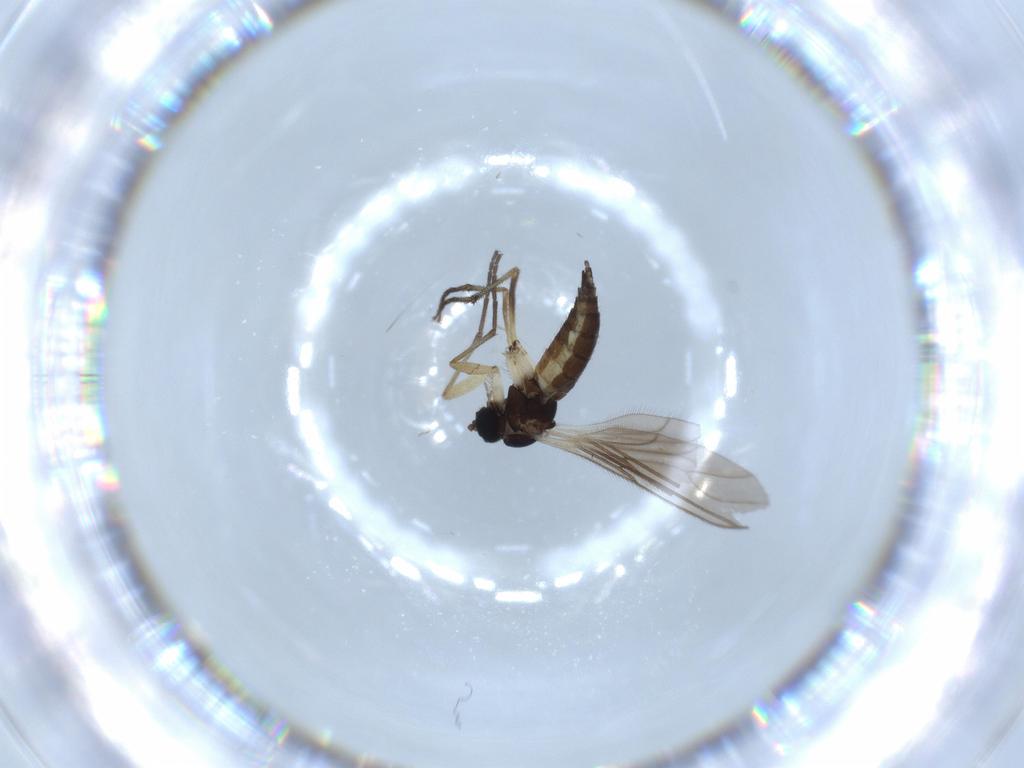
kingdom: Animalia
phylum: Arthropoda
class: Insecta
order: Diptera
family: Sciaridae
